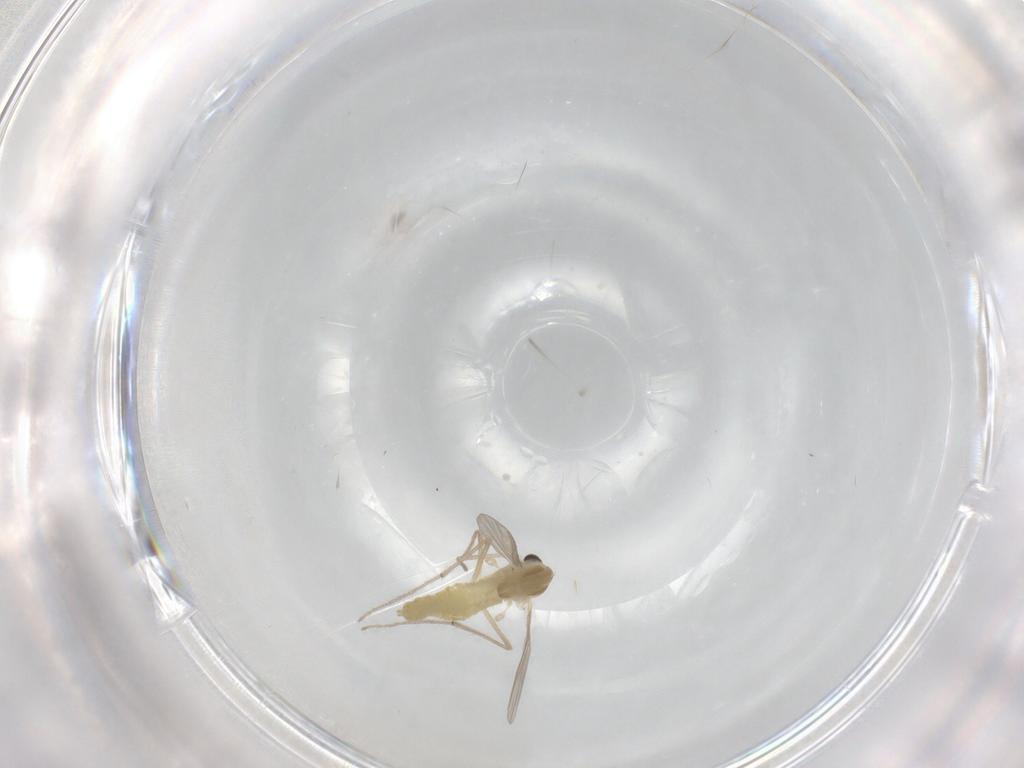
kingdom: Animalia
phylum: Arthropoda
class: Insecta
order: Diptera
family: Chironomidae
